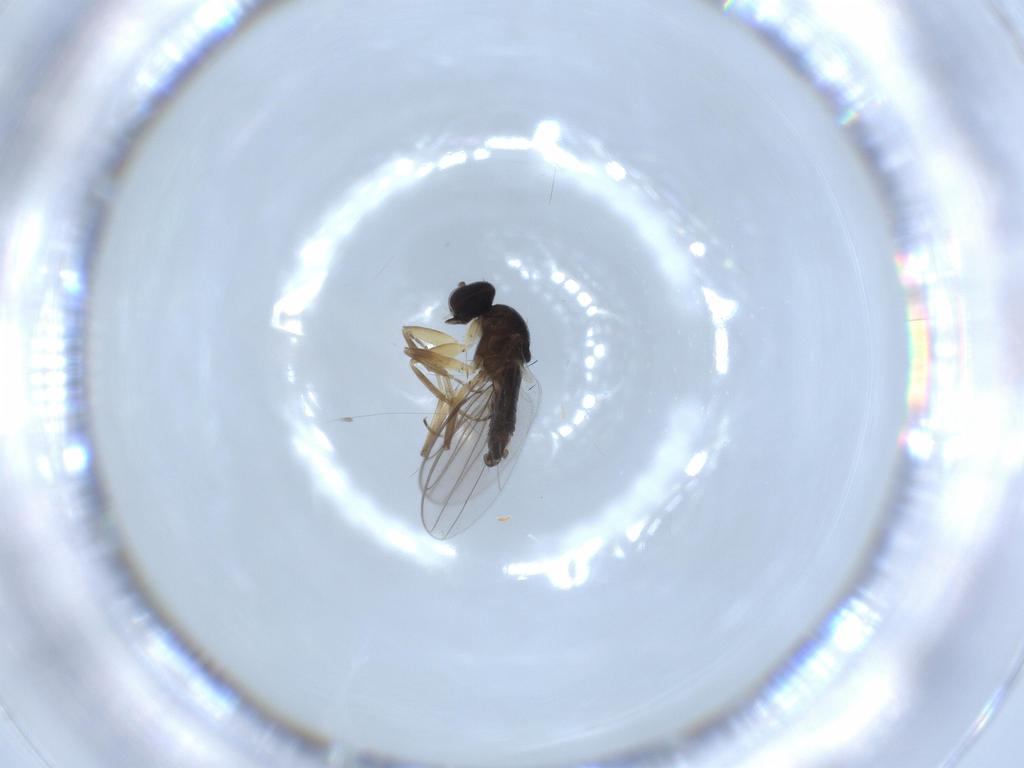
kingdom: Animalia
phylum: Arthropoda
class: Insecta
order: Diptera
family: Hybotidae
